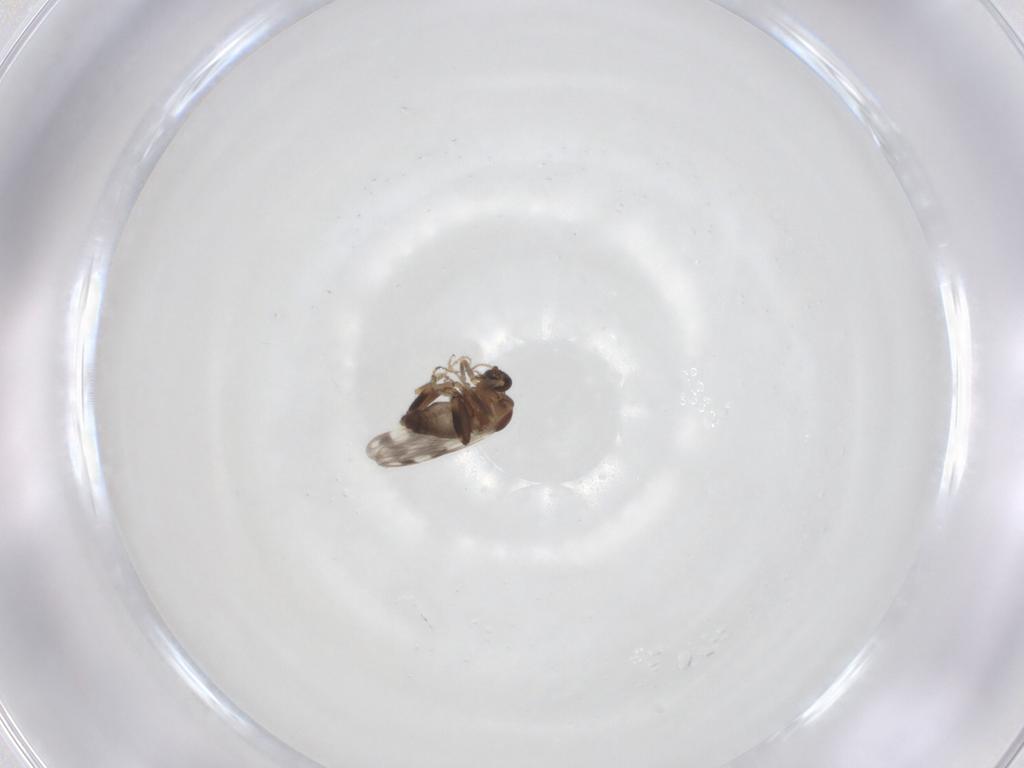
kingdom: Animalia
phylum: Arthropoda
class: Insecta
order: Diptera
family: Ceratopogonidae
